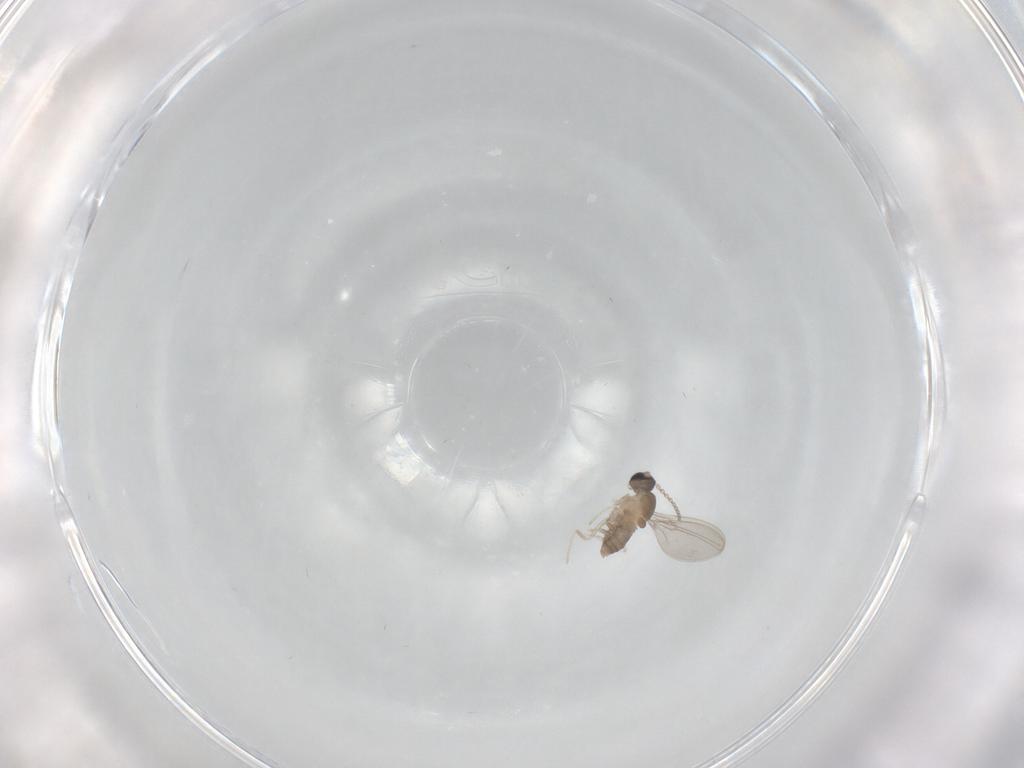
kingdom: Animalia
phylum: Arthropoda
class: Insecta
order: Diptera
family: Cecidomyiidae
